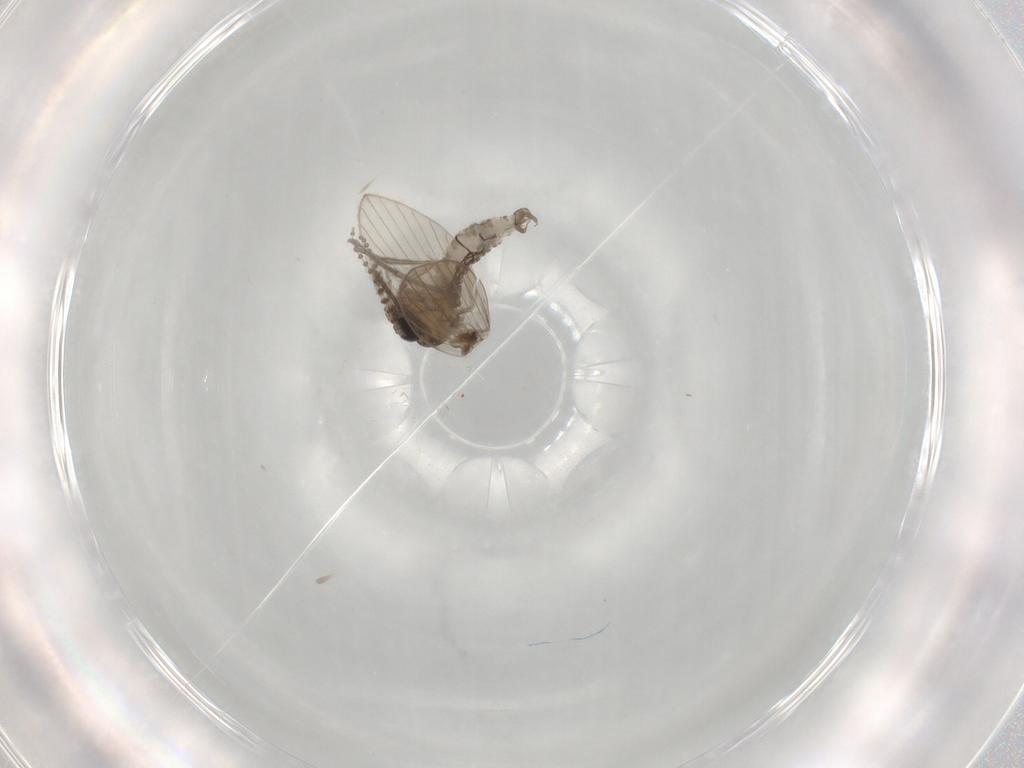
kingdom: Animalia
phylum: Arthropoda
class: Insecta
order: Diptera
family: Psychodidae
